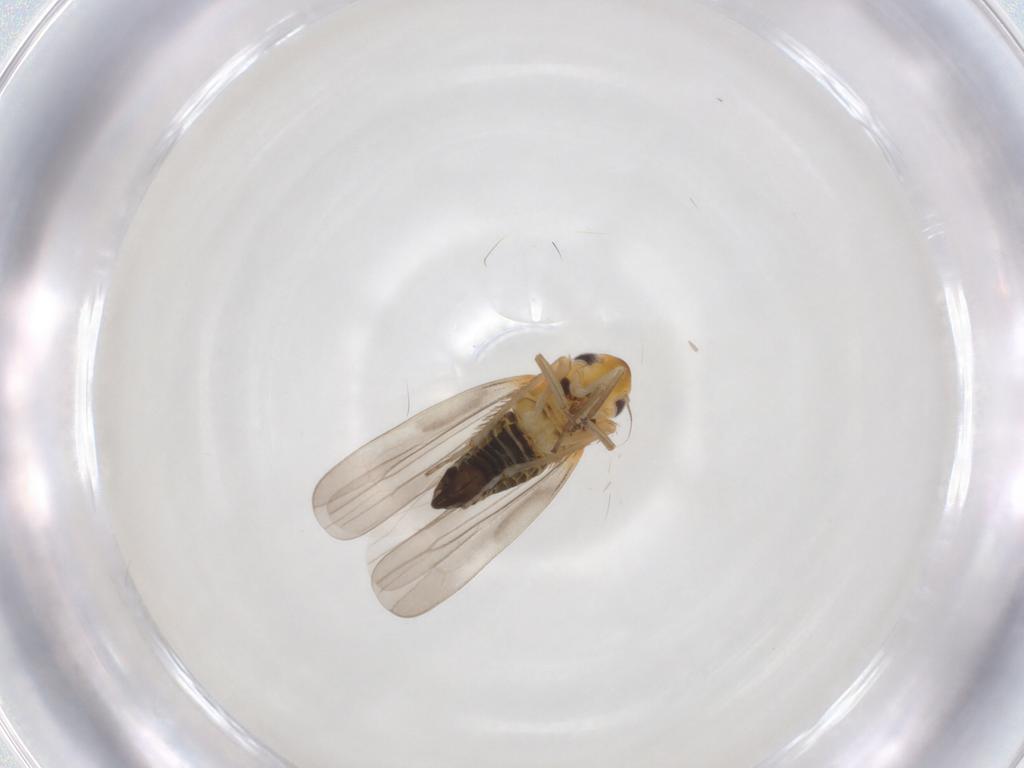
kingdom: Animalia
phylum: Arthropoda
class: Insecta
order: Hemiptera
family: Cicadellidae
